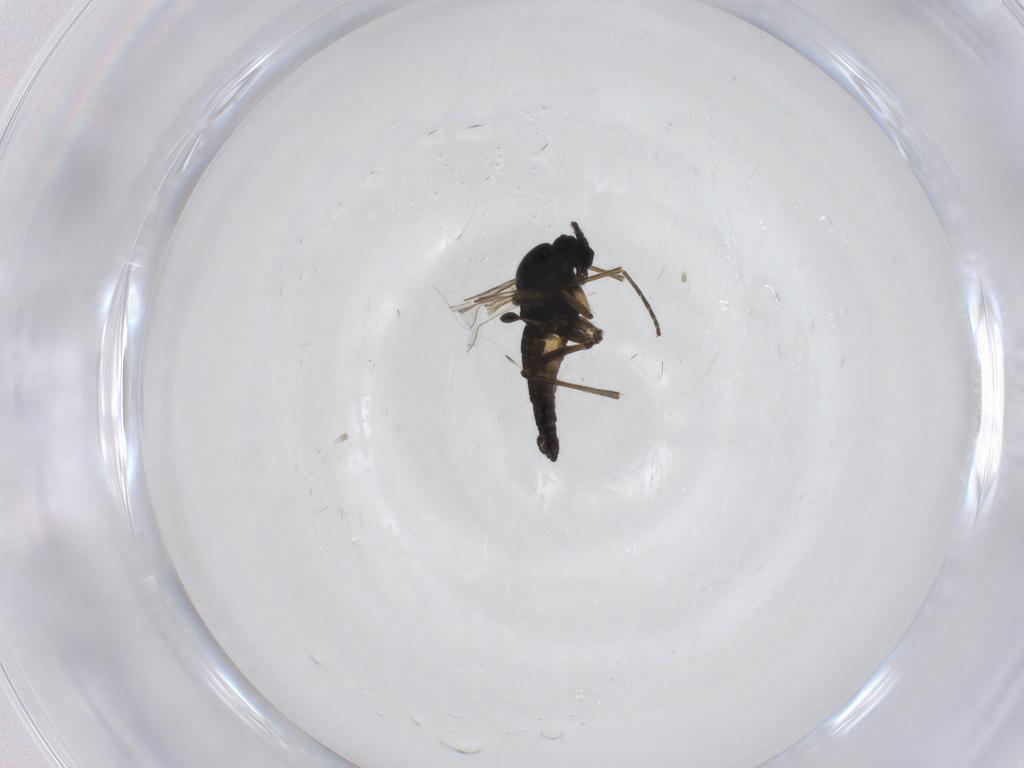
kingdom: Animalia
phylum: Arthropoda
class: Insecta
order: Diptera
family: Sciaridae
